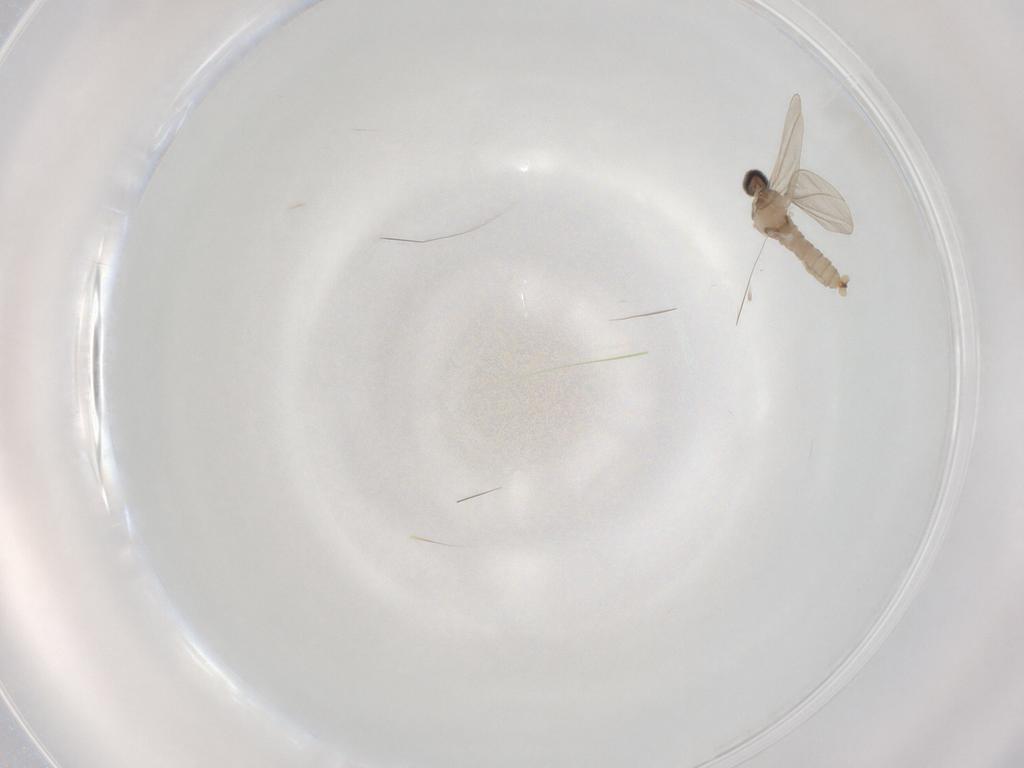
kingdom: Animalia
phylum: Arthropoda
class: Insecta
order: Diptera
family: Cecidomyiidae
